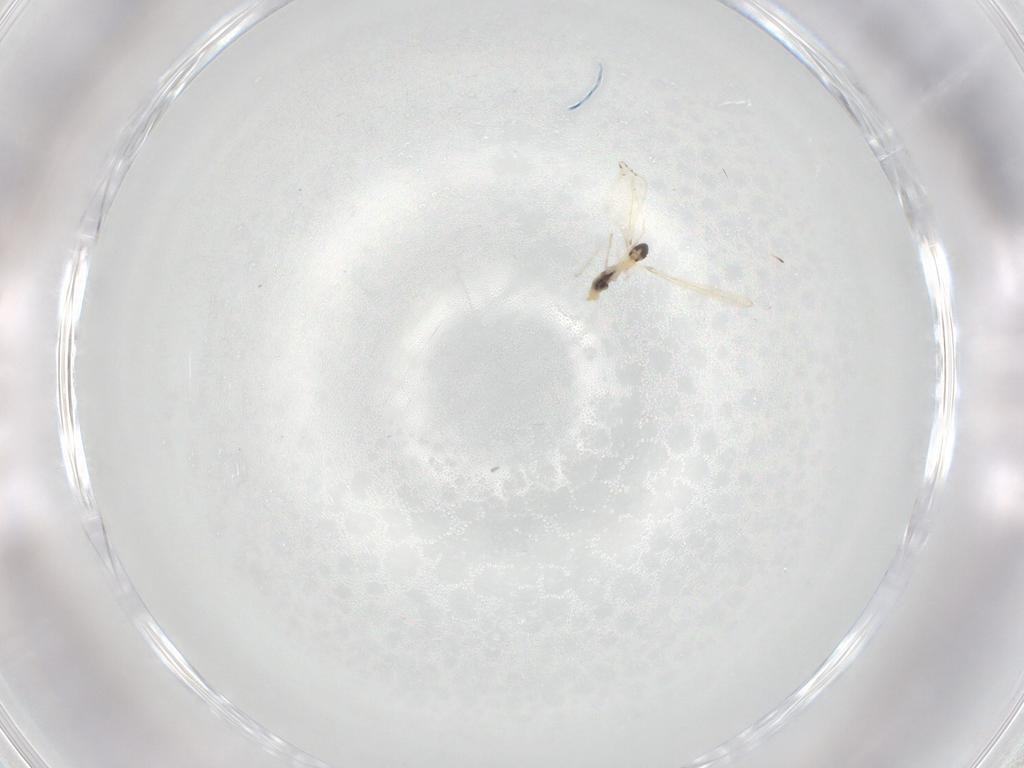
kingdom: Animalia
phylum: Arthropoda
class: Insecta
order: Diptera
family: Cecidomyiidae
